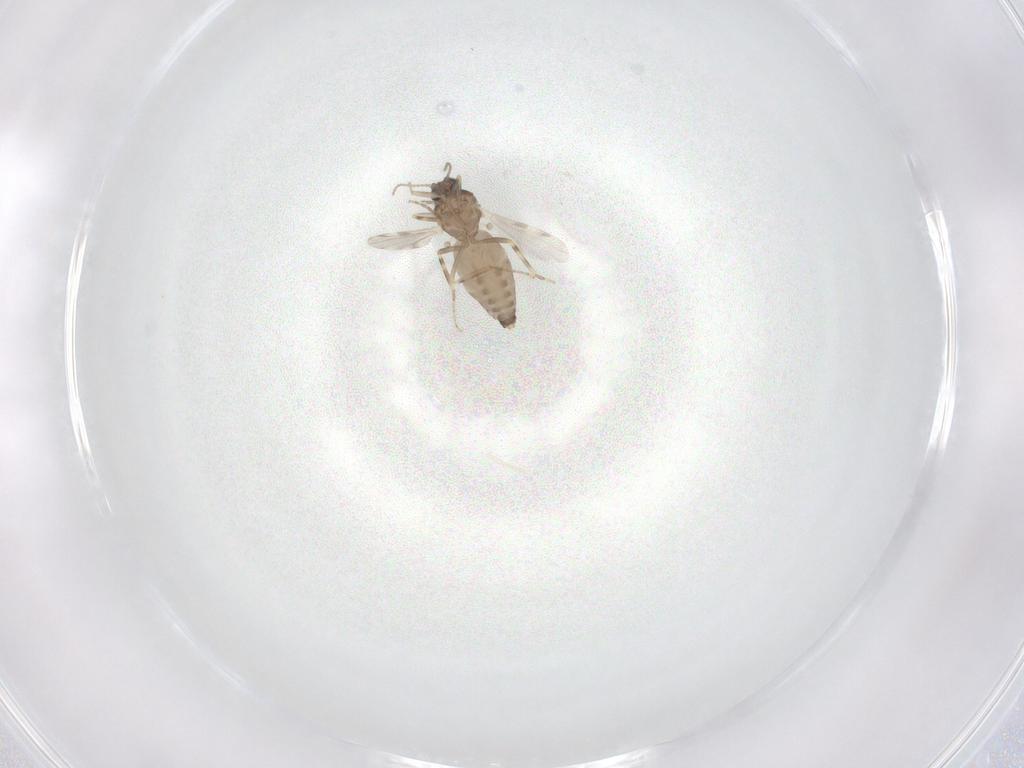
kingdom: Animalia
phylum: Arthropoda
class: Insecta
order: Diptera
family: Ceratopogonidae
